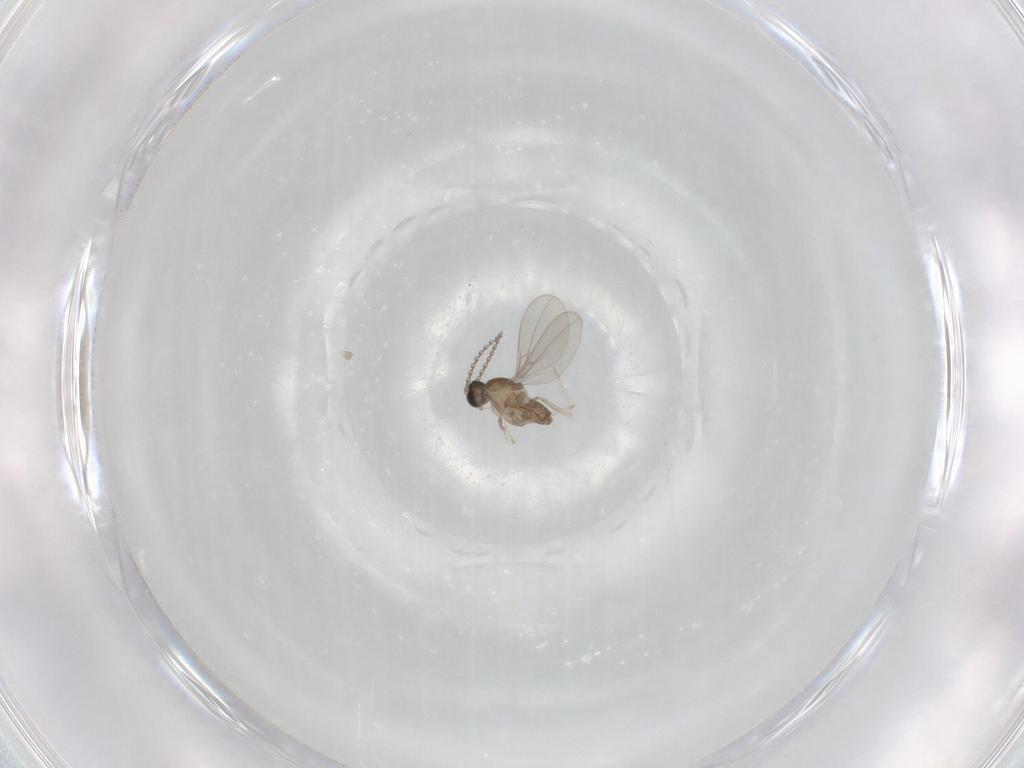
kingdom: Animalia
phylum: Arthropoda
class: Insecta
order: Diptera
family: Cecidomyiidae
